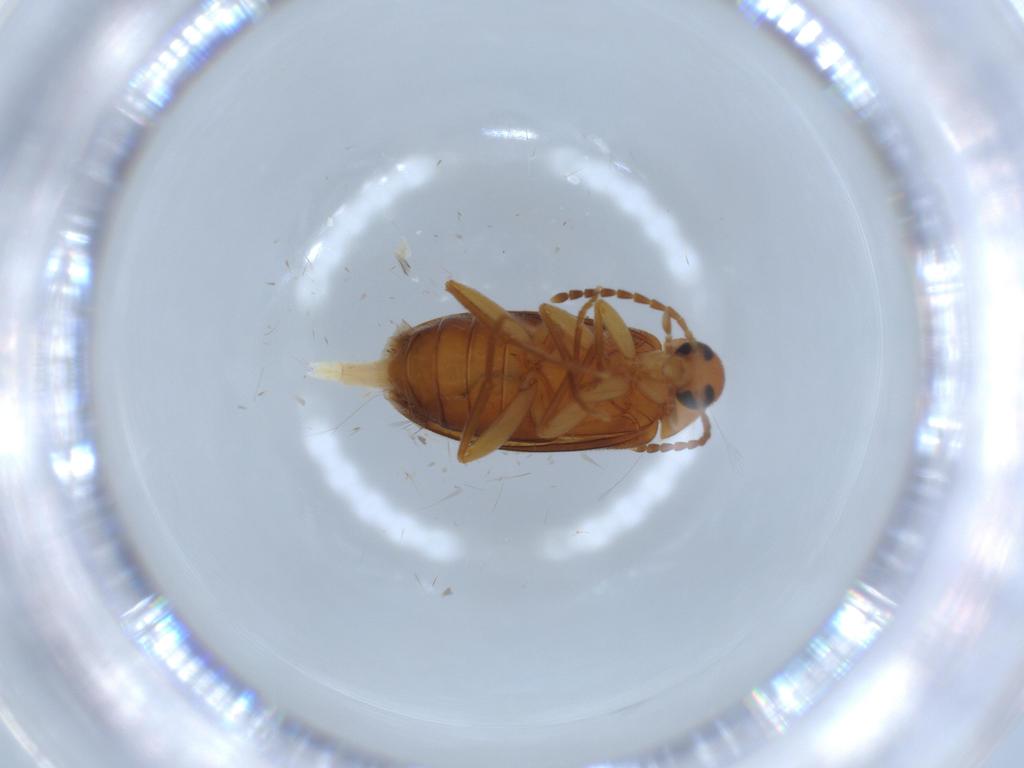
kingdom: Animalia
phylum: Arthropoda
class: Insecta
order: Coleoptera
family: Scraptiidae
